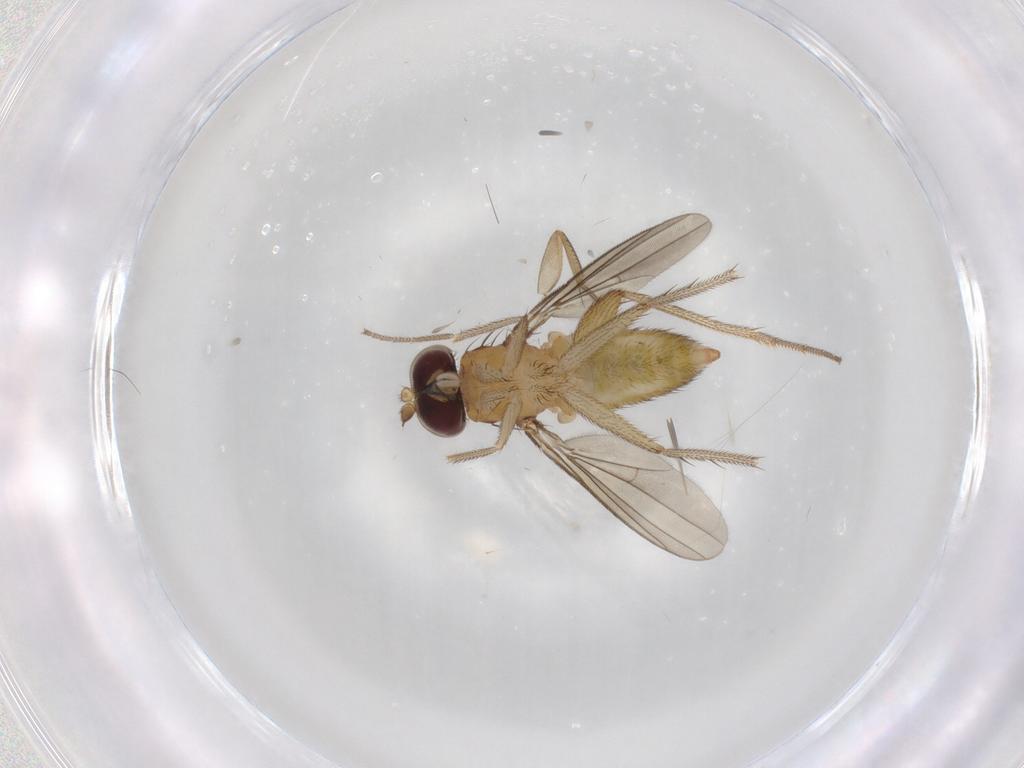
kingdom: Animalia
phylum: Arthropoda
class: Insecta
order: Diptera
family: Dolichopodidae
